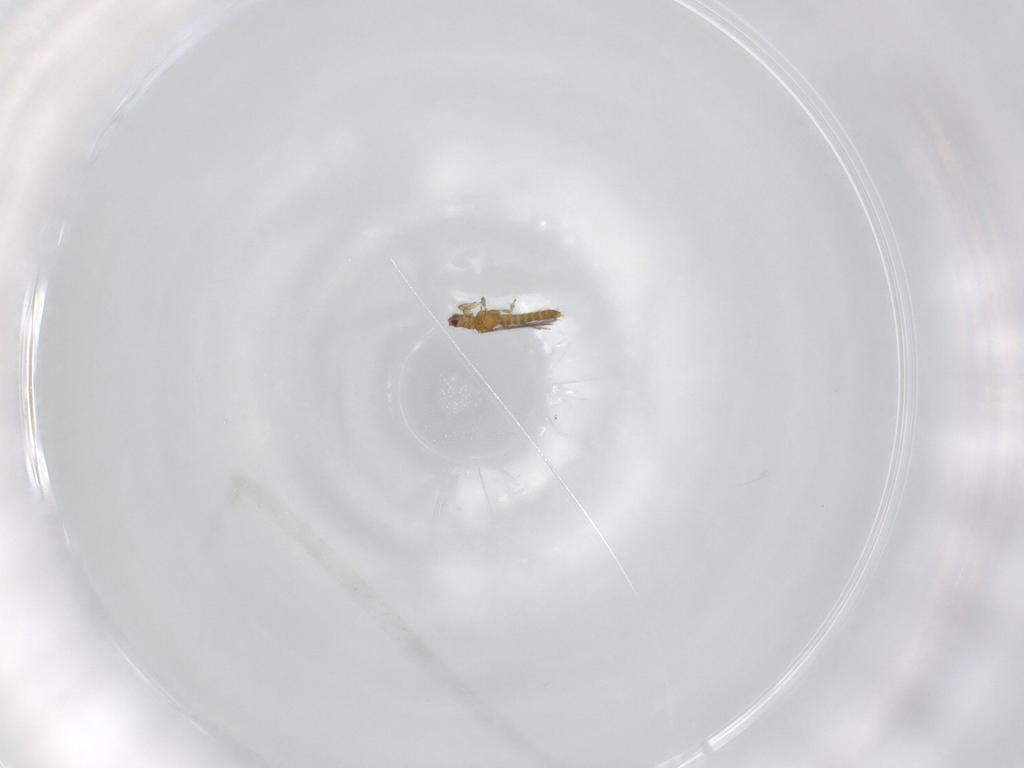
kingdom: Animalia
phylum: Arthropoda
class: Insecta
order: Thysanoptera
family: Thripidae
